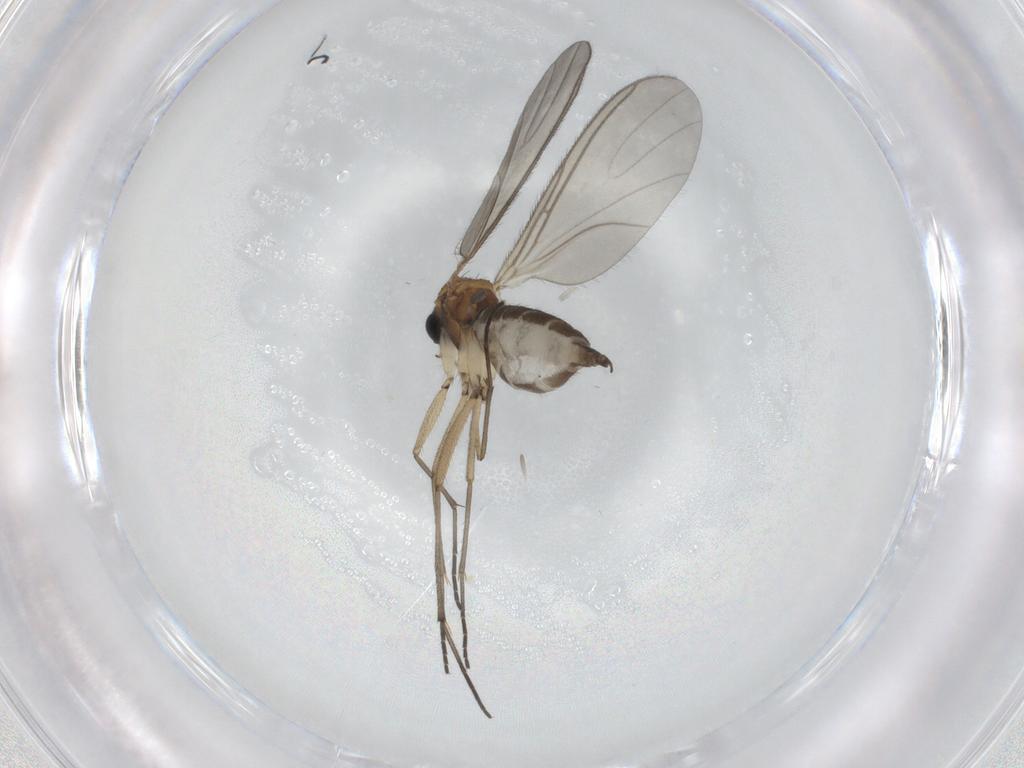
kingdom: Animalia
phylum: Arthropoda
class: Insecta
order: Diptera
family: Sciaridae
